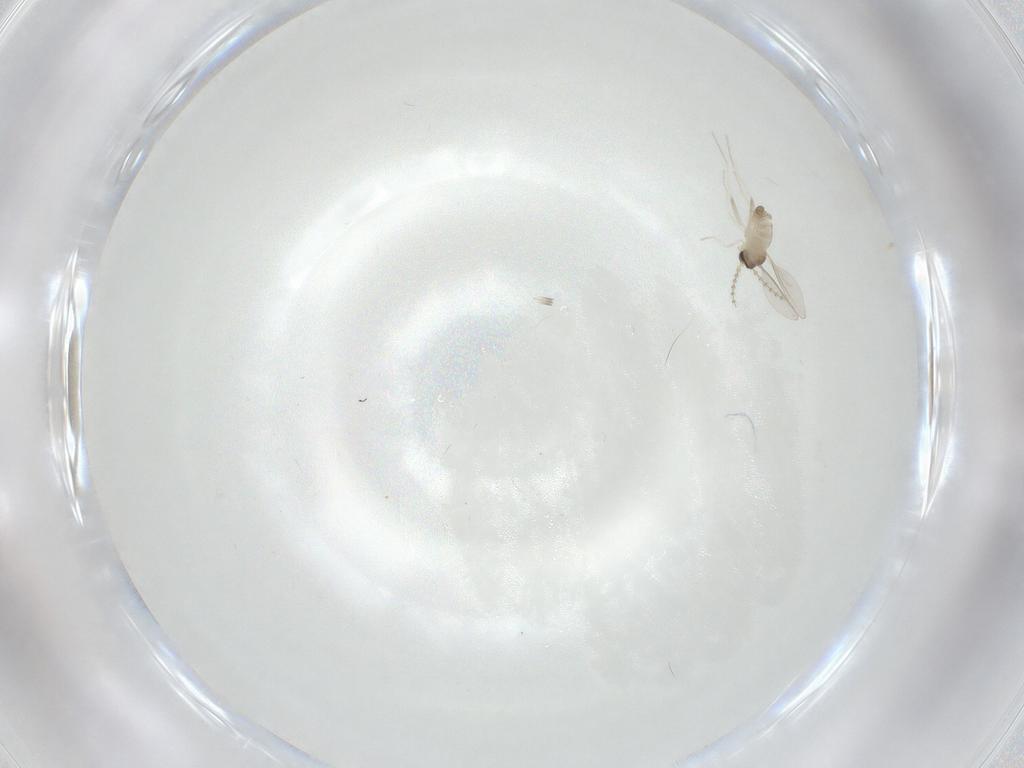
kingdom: Animalia
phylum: Arthropoda
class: Insecta
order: Diptera
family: Cecidomyiidae
